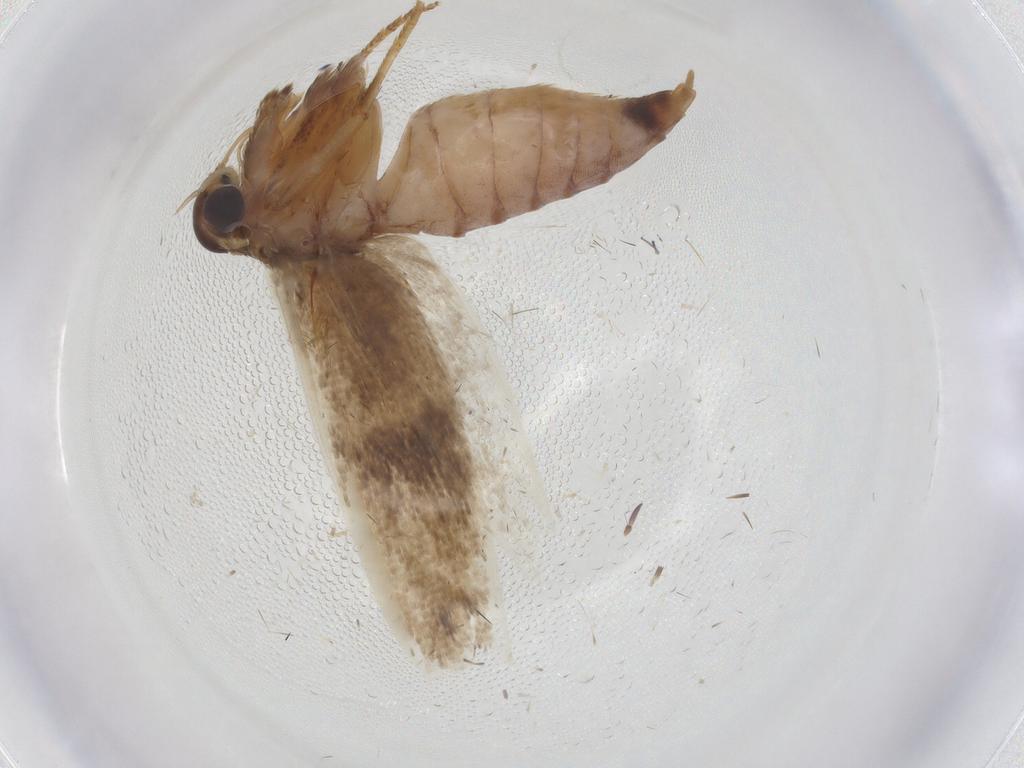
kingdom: Animalia
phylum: Arthropoda
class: Insecta
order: Lepidoptera
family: Blastobasidae
